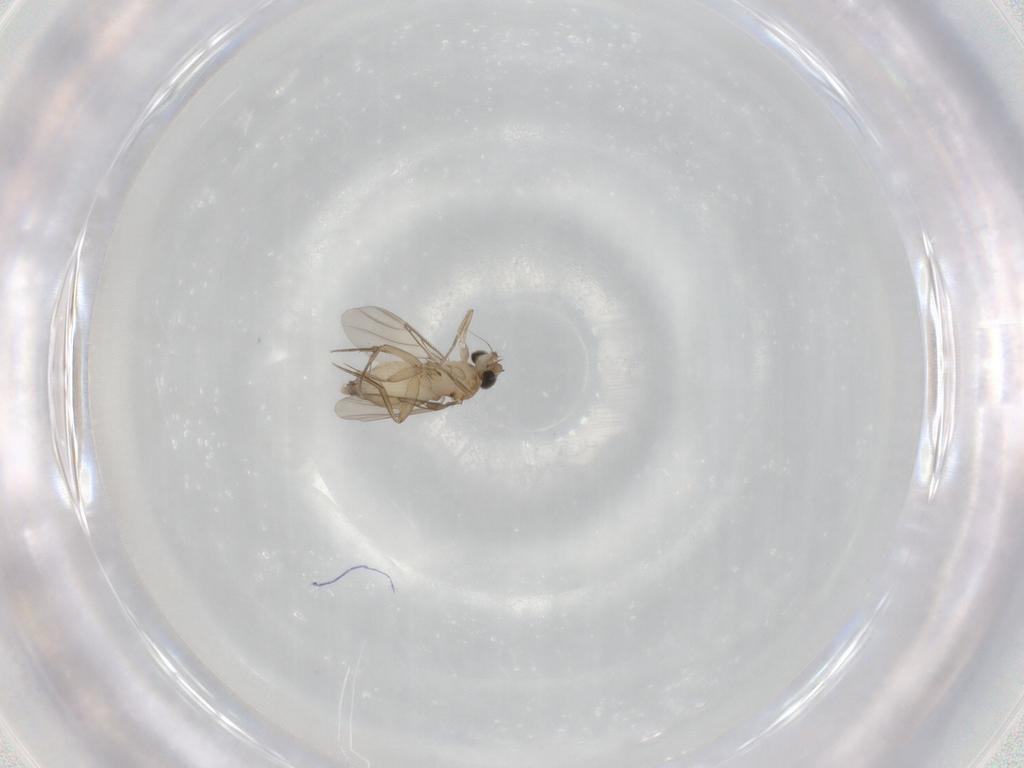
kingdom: Animalia
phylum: Arthropoda
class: Insecta
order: Diptera
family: Phoridae
